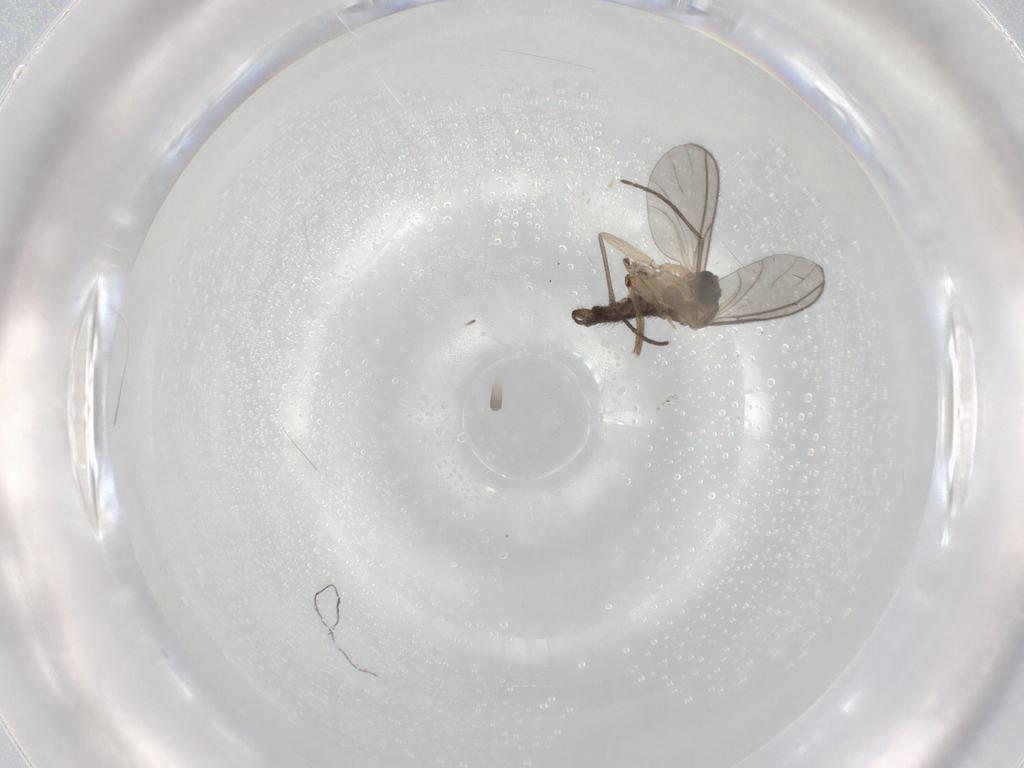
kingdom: Animalia
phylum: Arthropoda
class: Insecta
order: Diptera
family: Sciaridae
